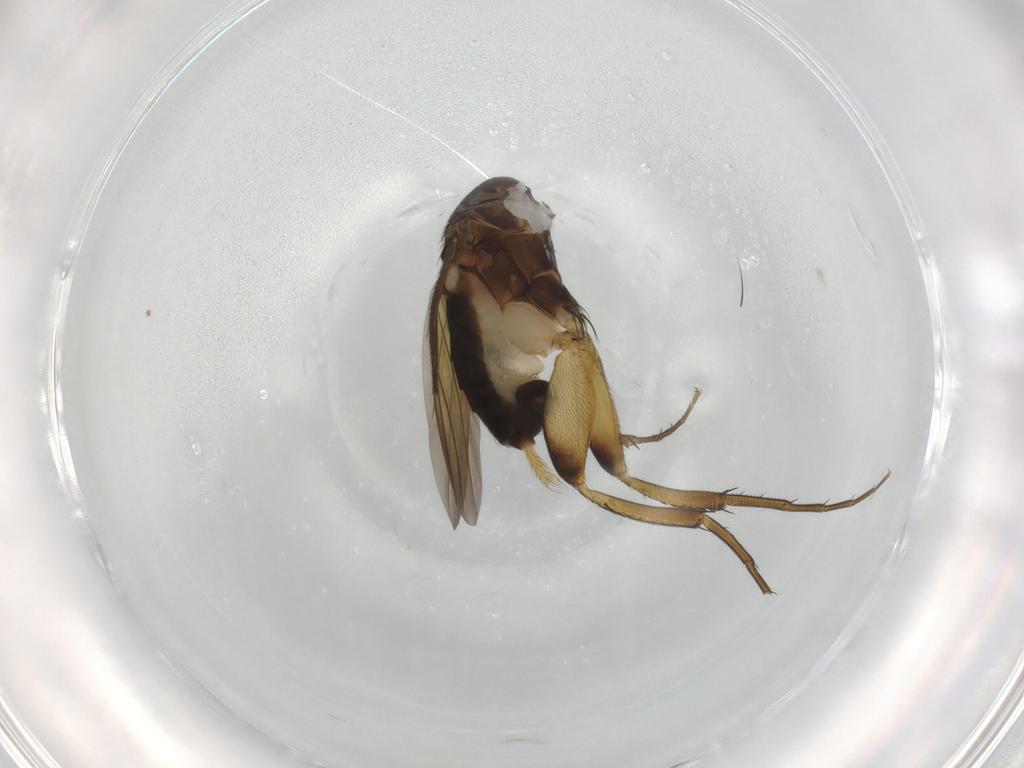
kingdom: Animalia
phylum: Arthropoda
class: Insecta
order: Diptera
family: Phoridae
